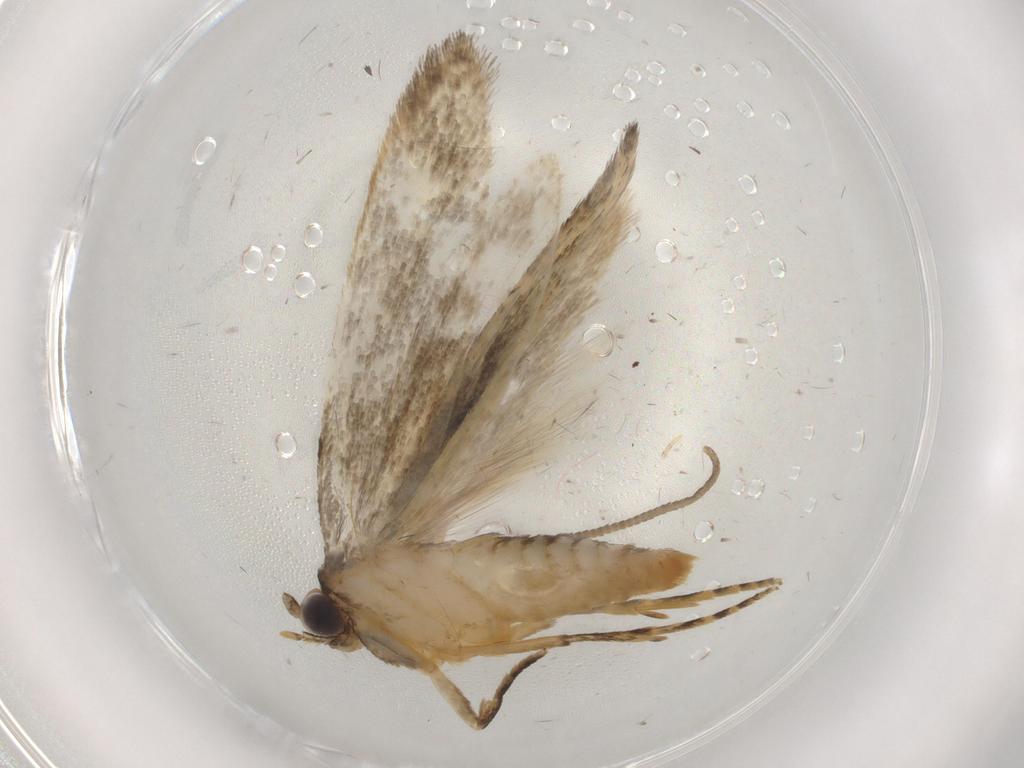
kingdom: Animalia
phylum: Arthropoda
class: Insecta
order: Lepidoptera
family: Tineidae
